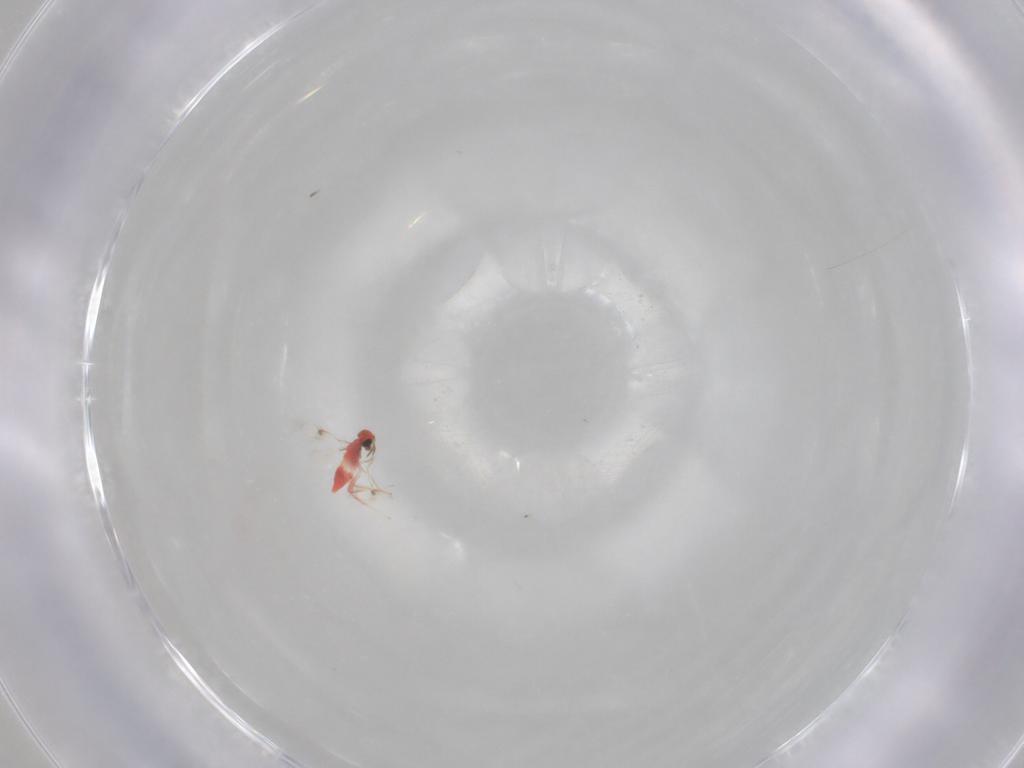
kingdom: Animalia
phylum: Arthropoda
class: Insecta
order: Hymenoptera
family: Trichogrammatidae
